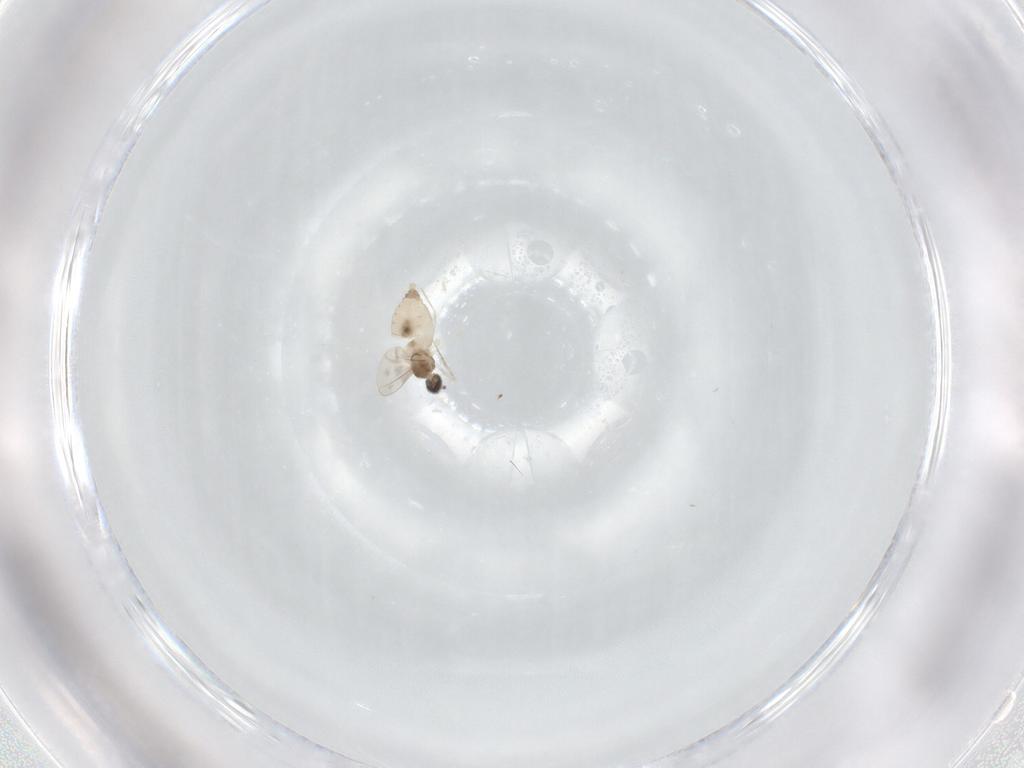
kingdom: Animalia
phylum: Arthropoda
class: Insecta
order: Diptera
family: Cecidomyiidae
